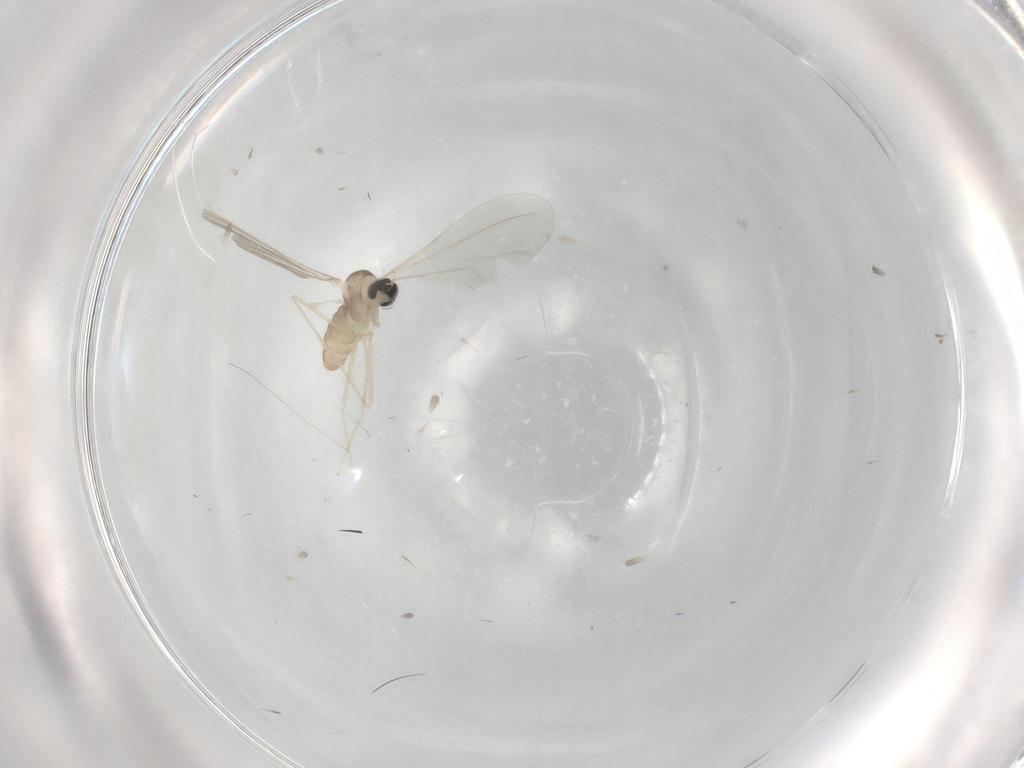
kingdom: Animalia
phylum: Arthropoda
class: Insecta
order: Diptera
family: Cecidomyiidae
